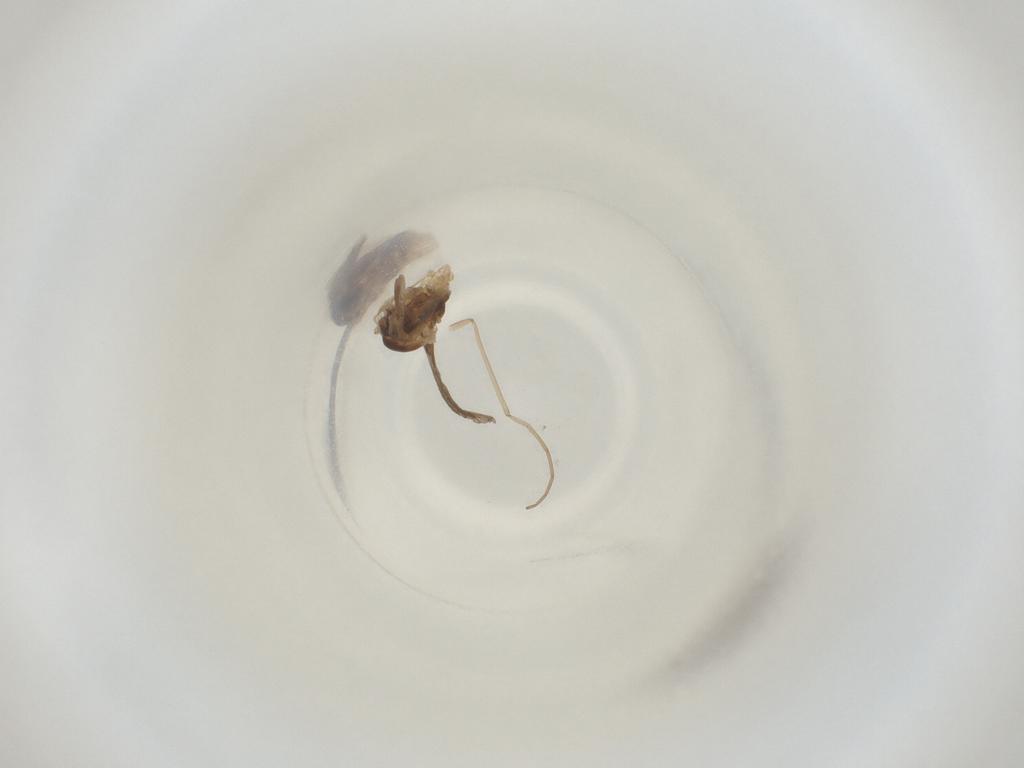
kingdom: Animalia
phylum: Arthropoda
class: Insecta
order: Diptera
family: Cecidomyiidae
